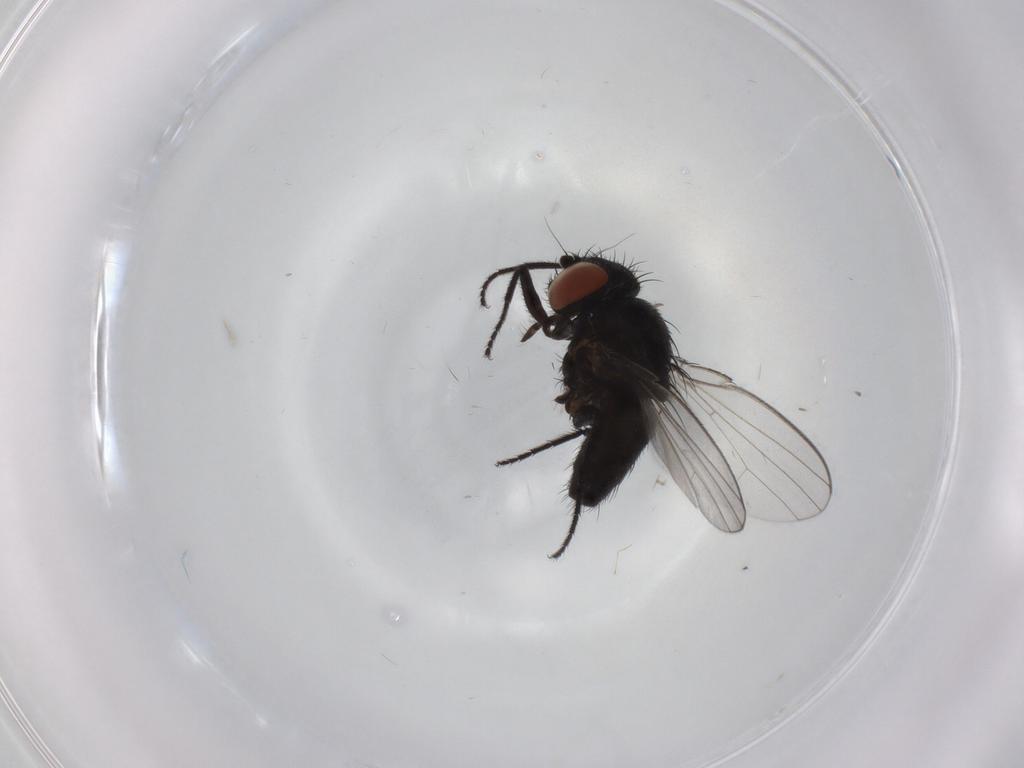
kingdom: Animalia
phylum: Arthropoda
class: Insecta
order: Diptera
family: Milichiidae
